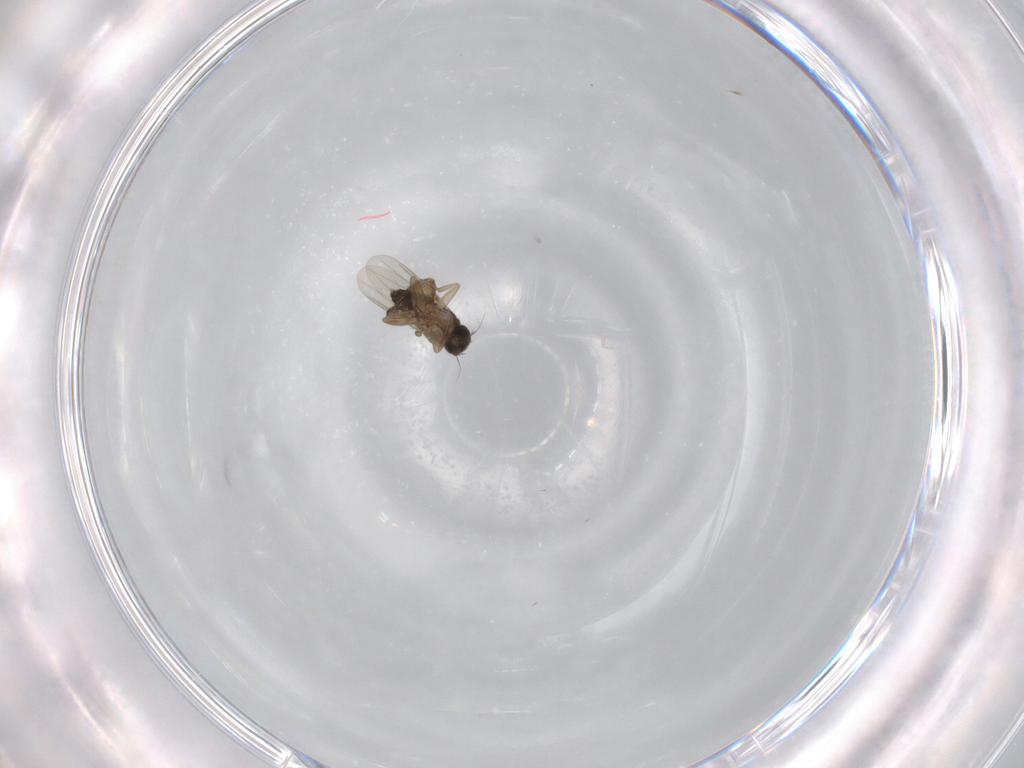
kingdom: Animalia
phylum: Arthropoda
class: Insecta
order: Diptera
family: Phoridae
